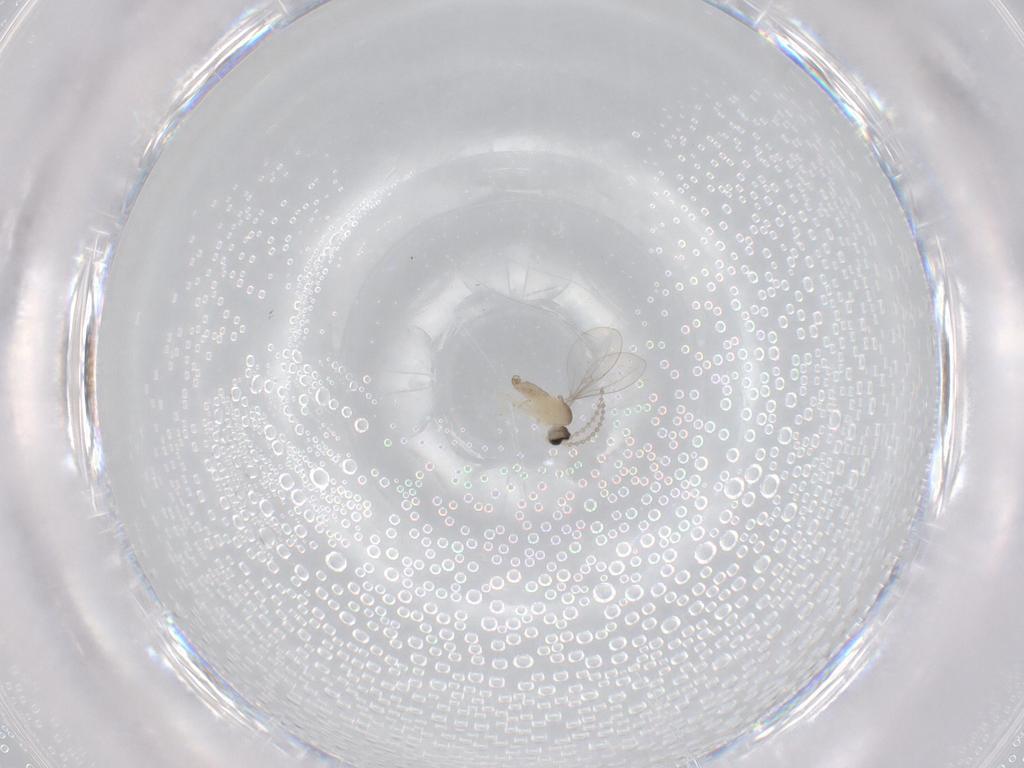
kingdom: Animalia
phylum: Arthropoda
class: Insecta
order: Diptera
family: Cecidomyiidae
